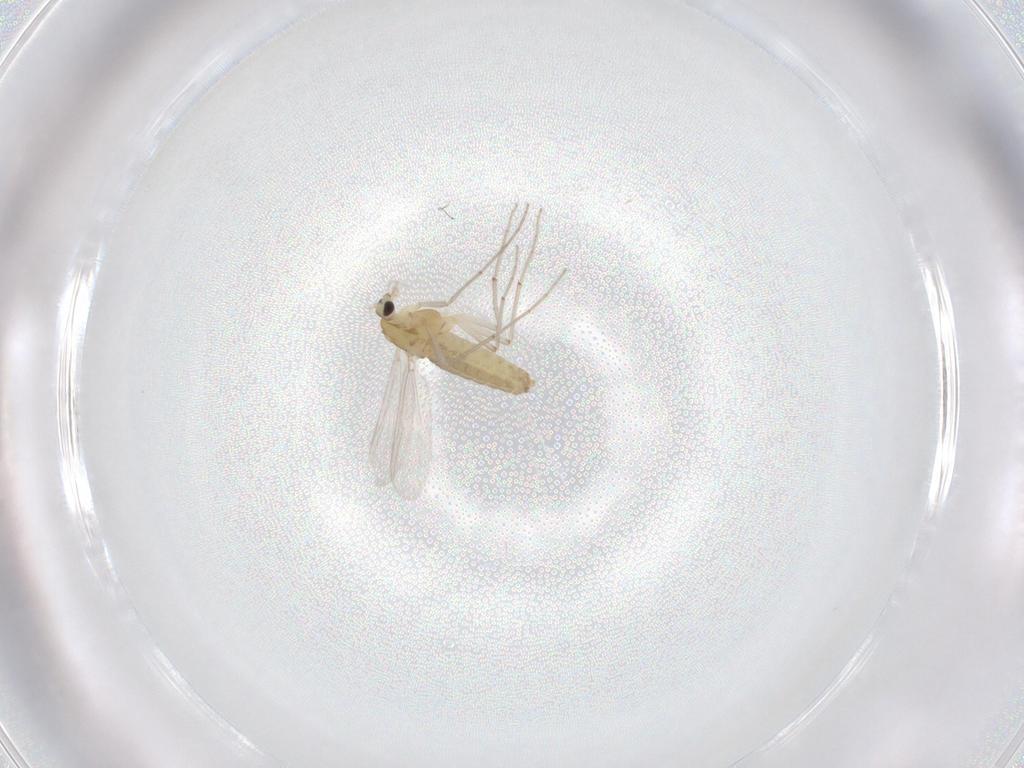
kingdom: Animalia
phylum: Arthropoda
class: Insecta
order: Diptera
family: Chironomidae
